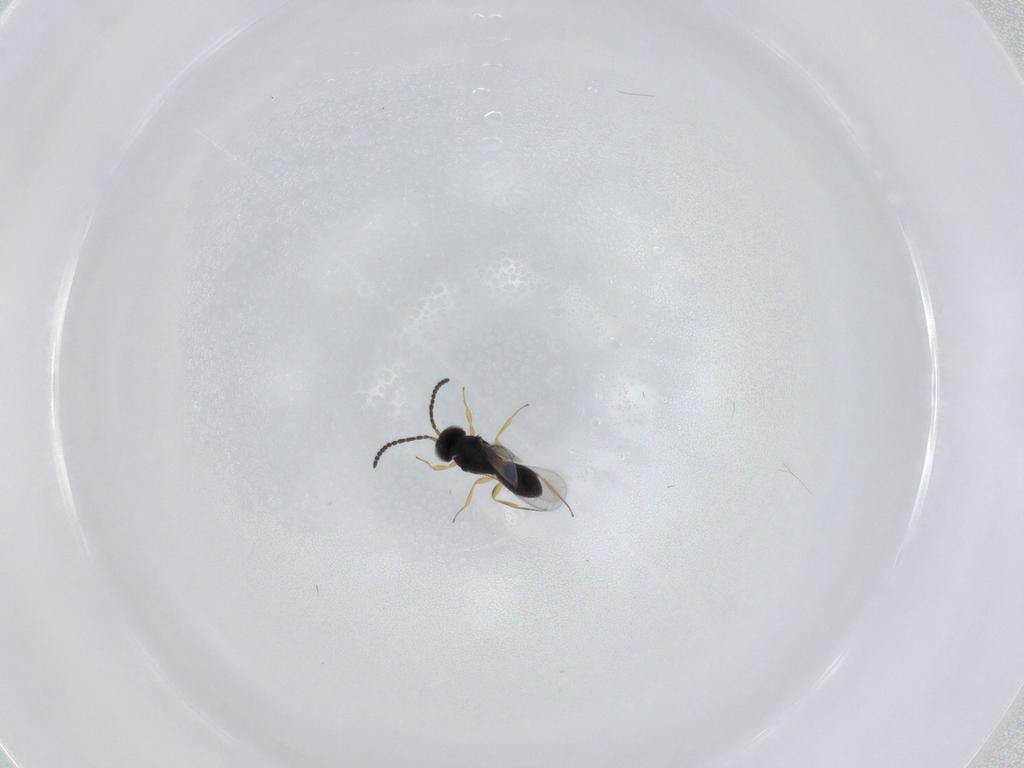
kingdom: Animalia
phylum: Arthropoda
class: Insecta
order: Hymenoptera
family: Scelionidae
